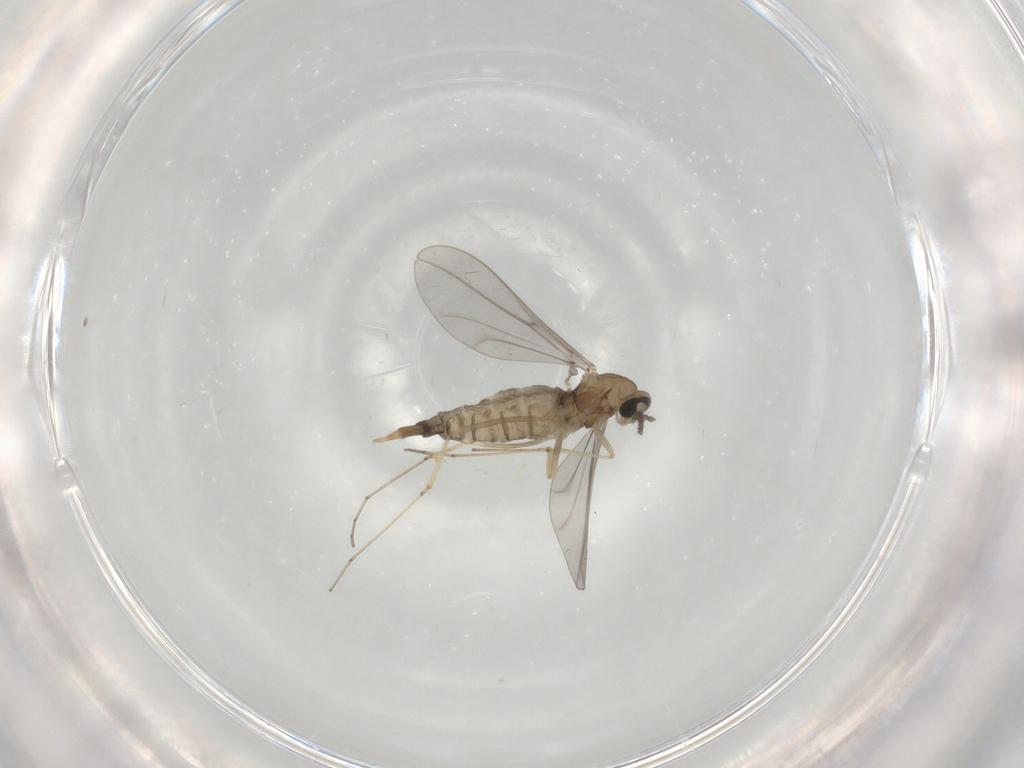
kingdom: Animalia
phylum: Arthropoda
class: Insecta
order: Diptera
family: Cecidomyiidae
